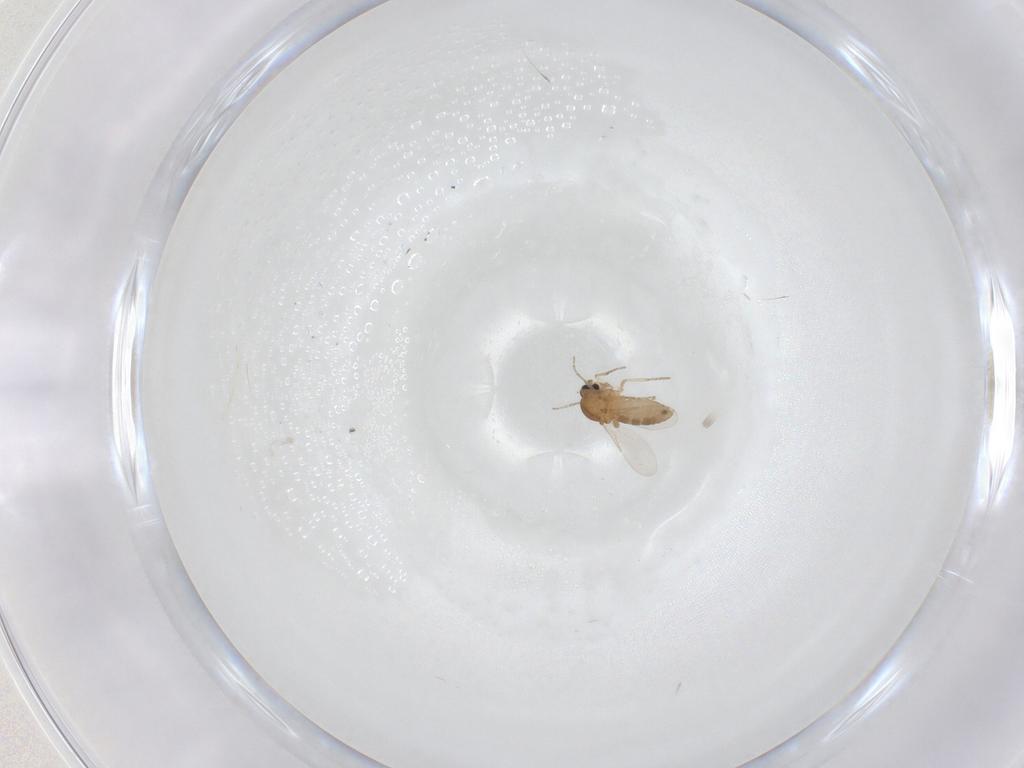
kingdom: Animalia
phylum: Arthropoda
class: Insecta
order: Diptera
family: Ceratopogonidae
